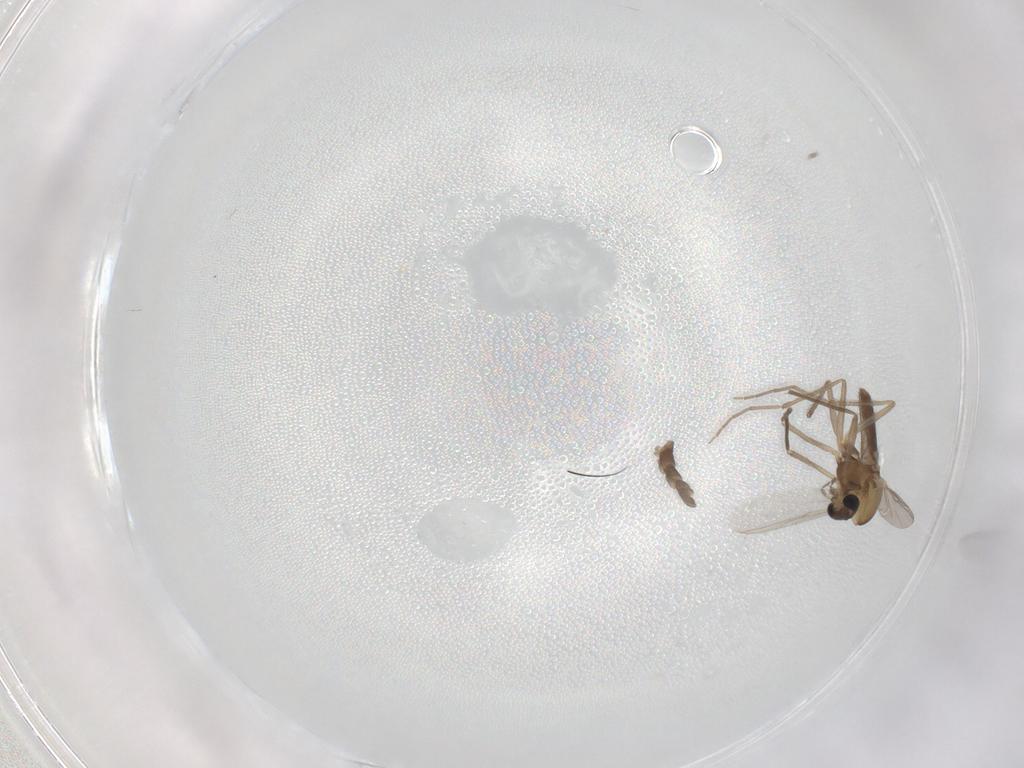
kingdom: Animalia
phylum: Arthropoda
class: Insecta
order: Diptera
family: Chironomidae
